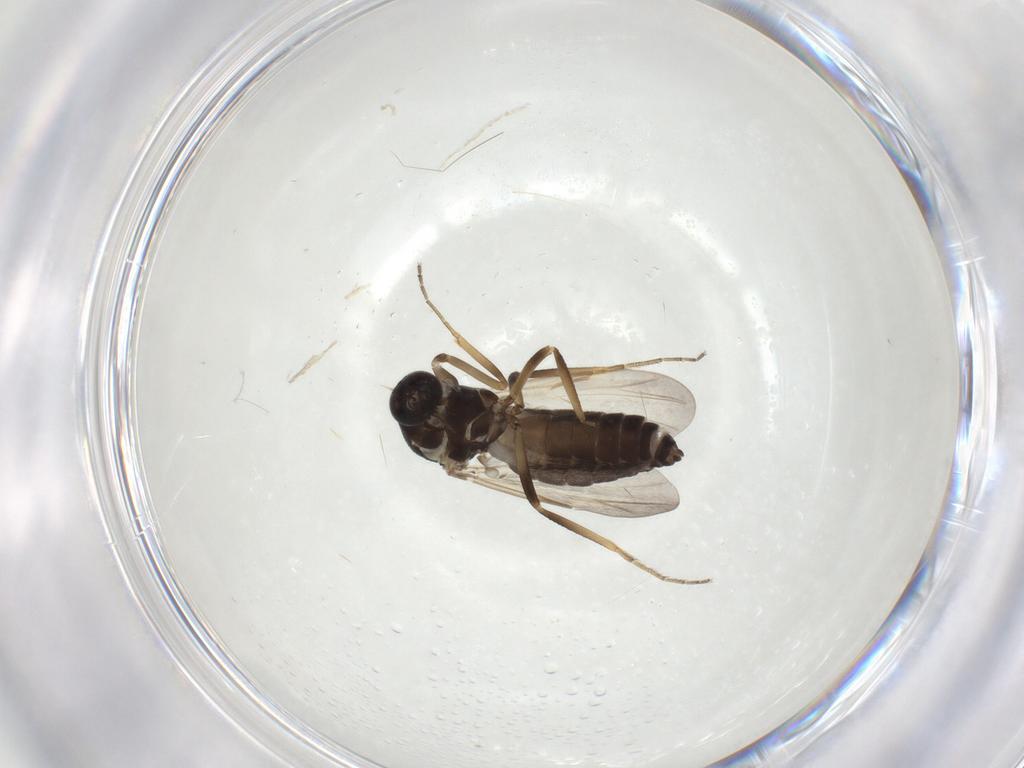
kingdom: Animalia
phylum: Arthropoda
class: Insecta
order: Diptera
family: Ceratopogonidae
